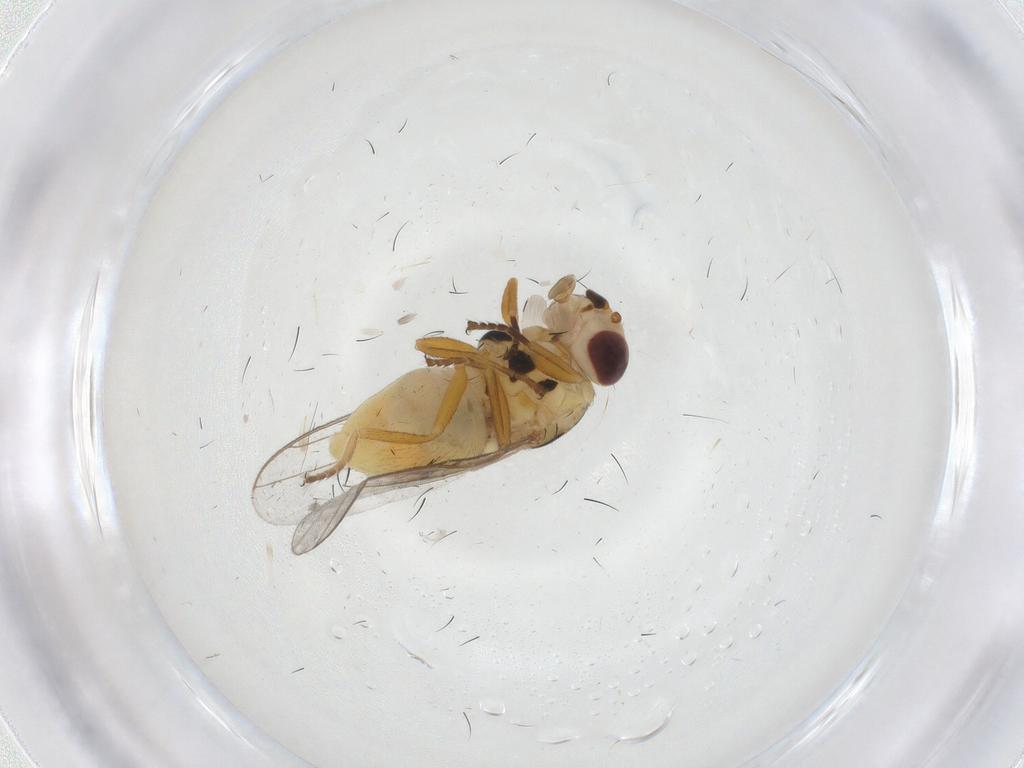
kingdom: Animalia
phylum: Arthropoda
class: Insecta
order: Diptera
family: Chloropidae
